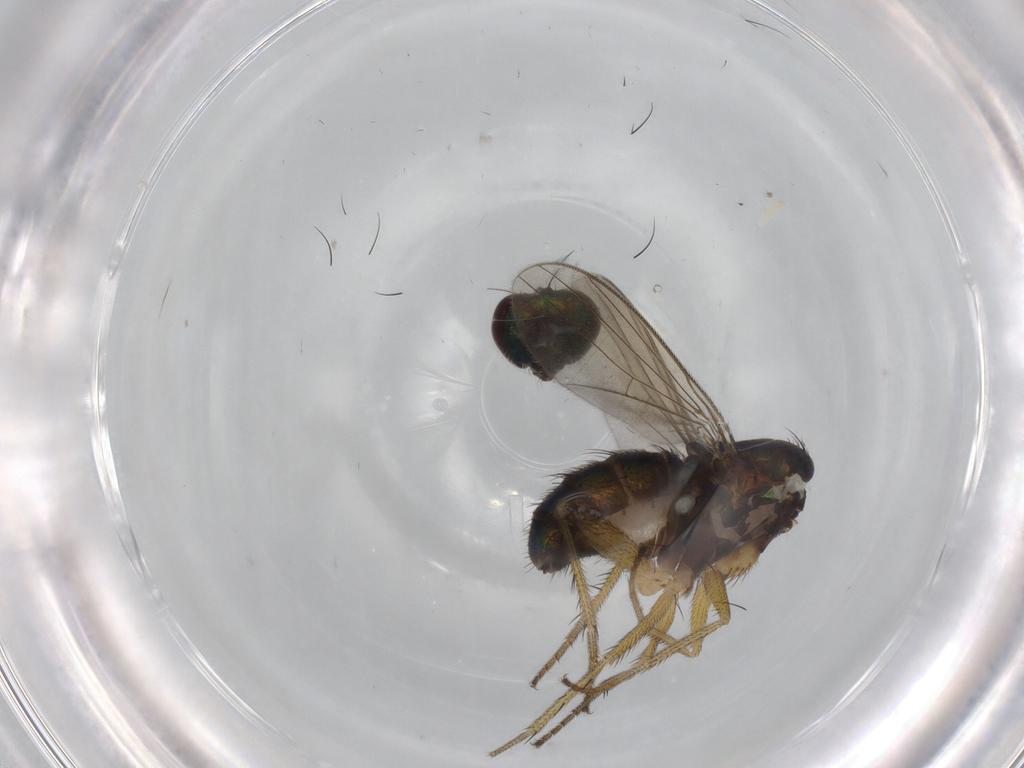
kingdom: Animalia
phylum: Arthropoda
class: Insecta
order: Diptera
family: Dolichopodidae
